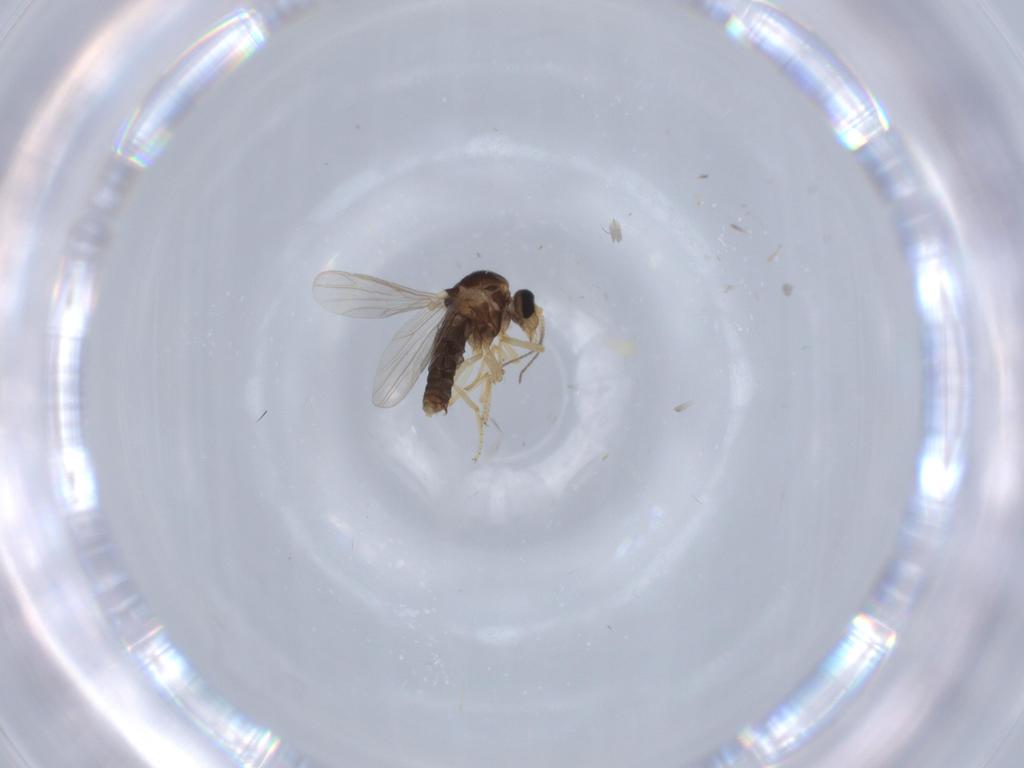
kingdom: Animalia
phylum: Arthropoda
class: Insecta
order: Diptera
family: Ceratopogonidae
